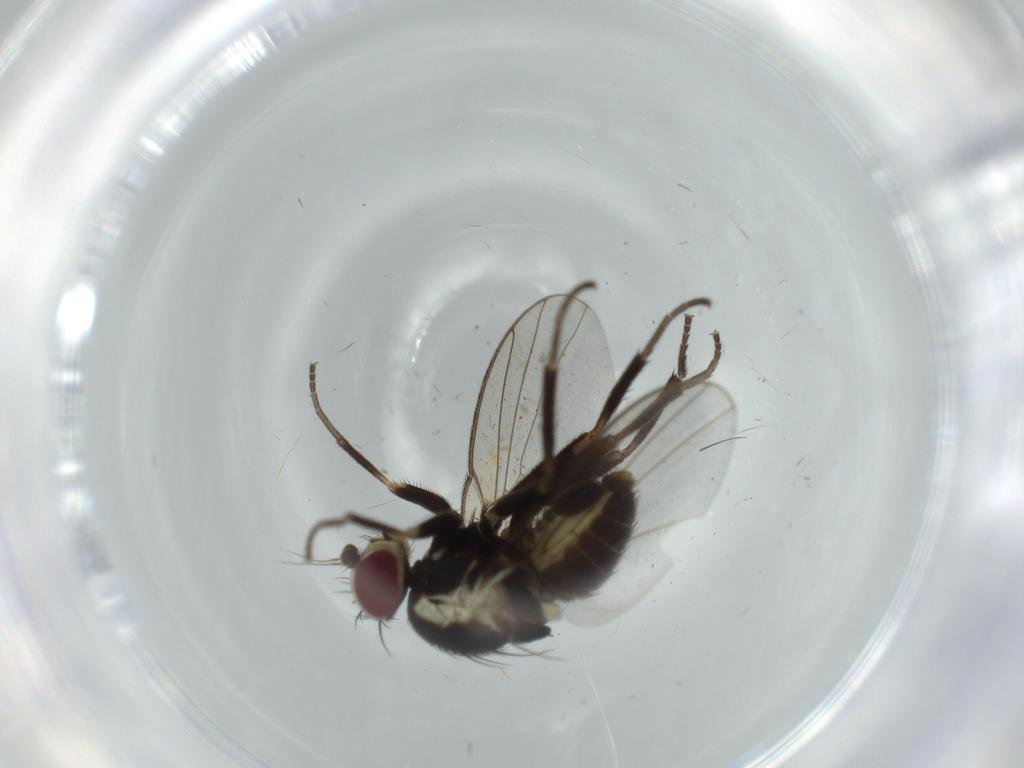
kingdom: Animalia
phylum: Arthropoda
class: Insecta
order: Diptera
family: Agromyzidae
